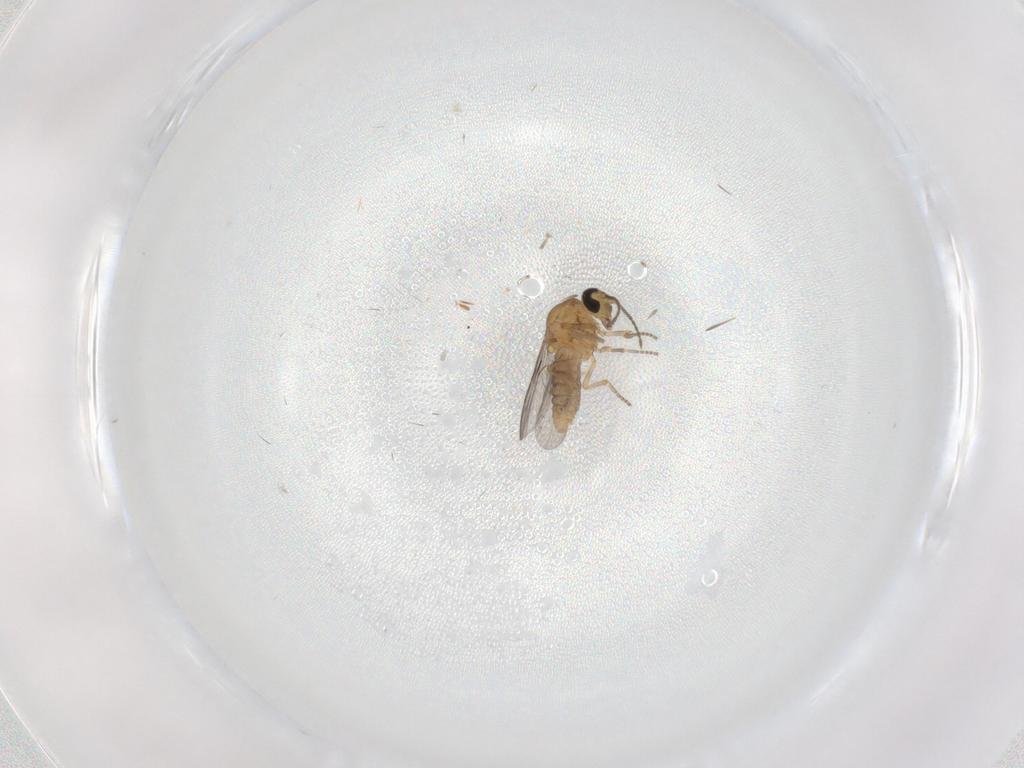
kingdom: Animalia
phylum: Arthropoda
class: Insecta
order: Diptera
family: Ceratopogonidae
